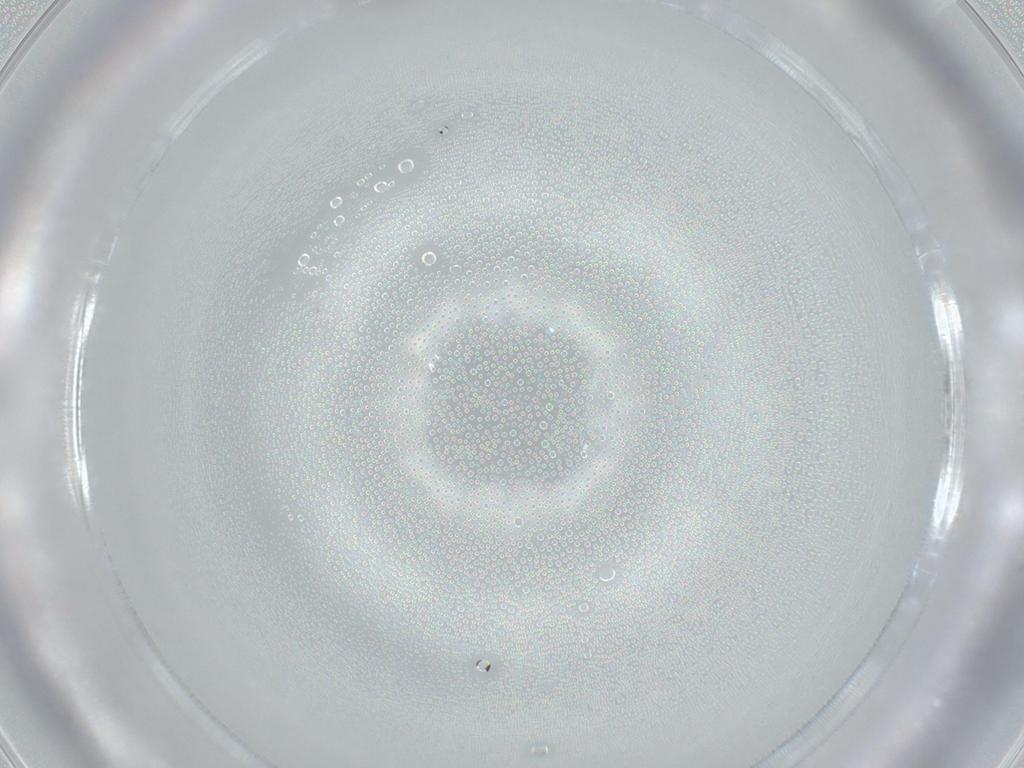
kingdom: Animalia
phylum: Arthropoda
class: Insecta
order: Diptera
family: Sciaridae
